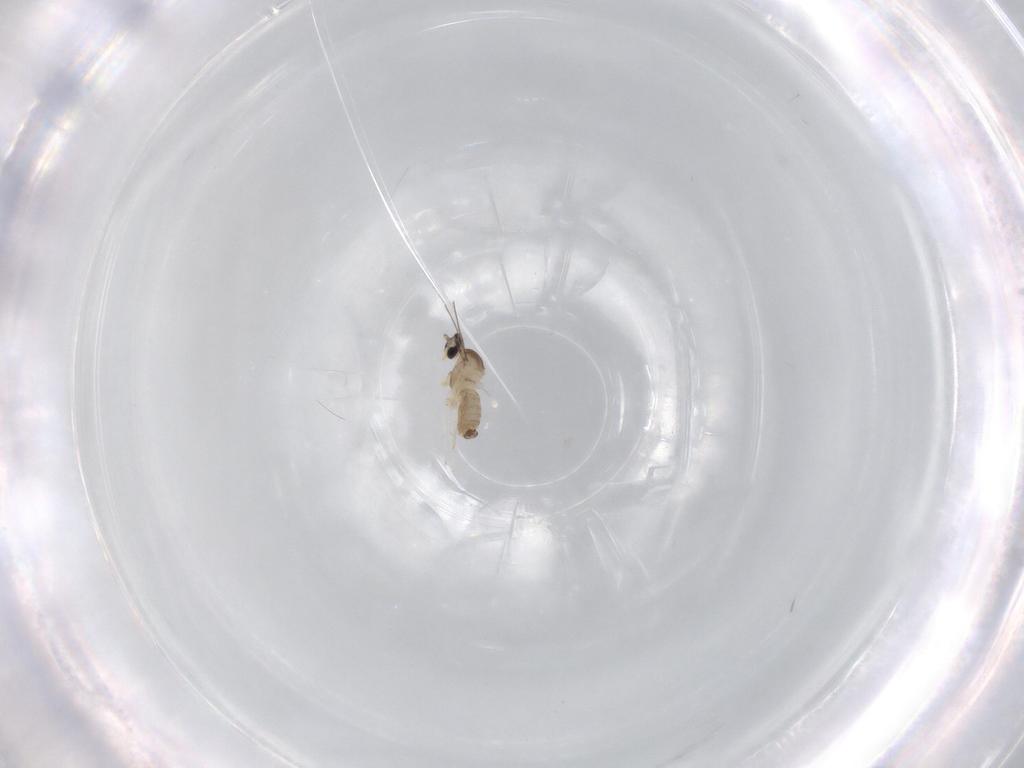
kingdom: Animalia
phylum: Arthropoda
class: Insecta
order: Diptera
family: Cecidomyiidae
